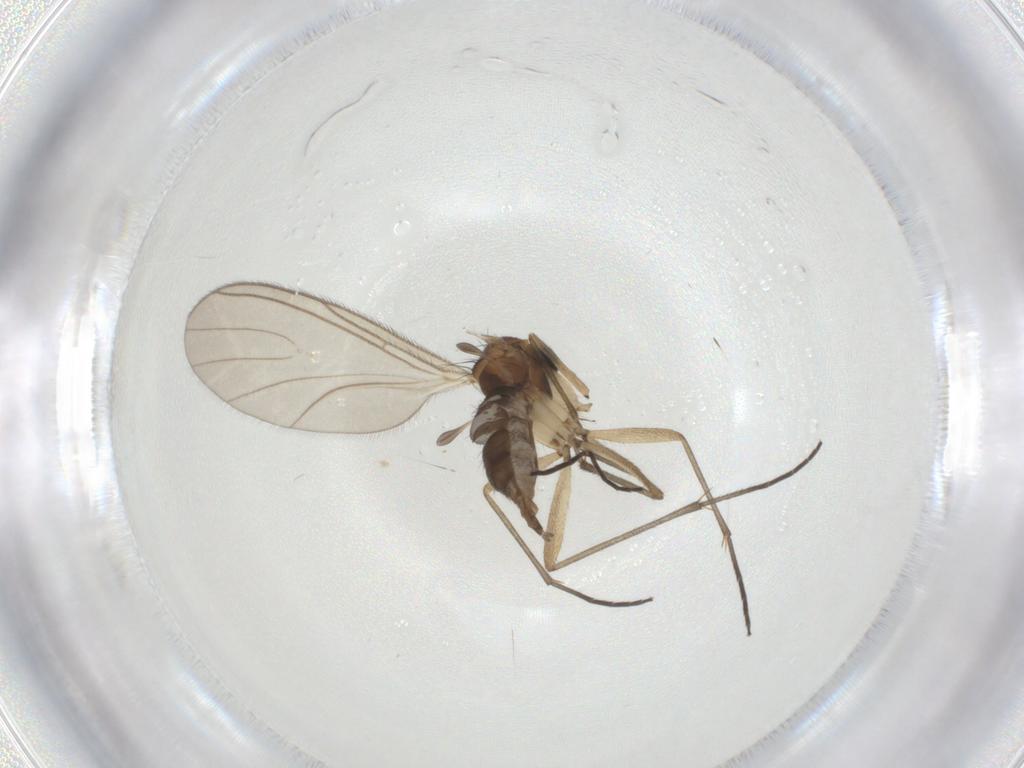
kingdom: Animalia
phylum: Arthropoda
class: Insecta
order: Diptera
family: Sciaridae
